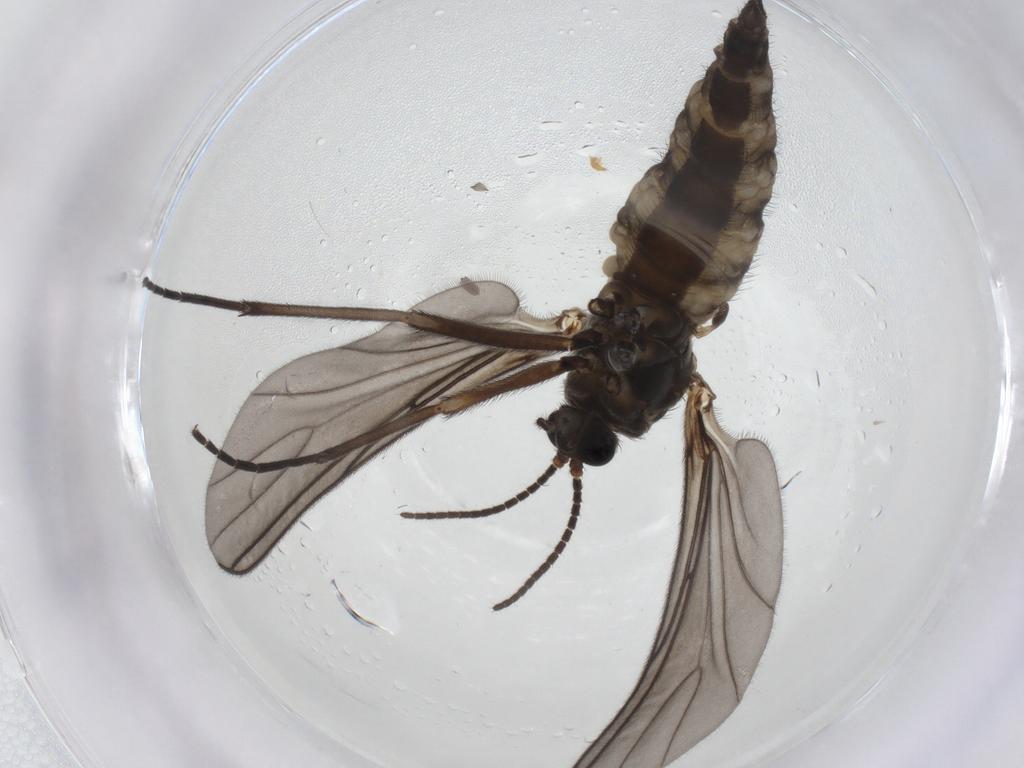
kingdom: Animalia
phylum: Arthropoda
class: Insecta
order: Diptera
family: Sciaridae
